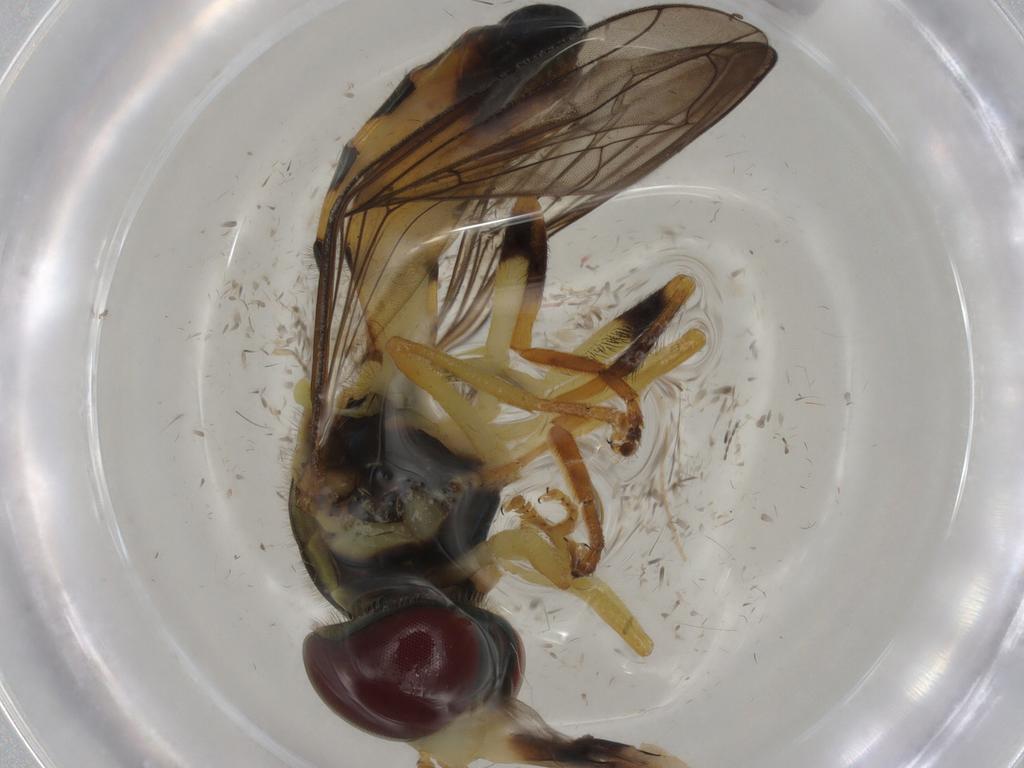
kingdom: Animalia
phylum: Arthropoda
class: Insecta
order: Diptera
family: Syrphidae
